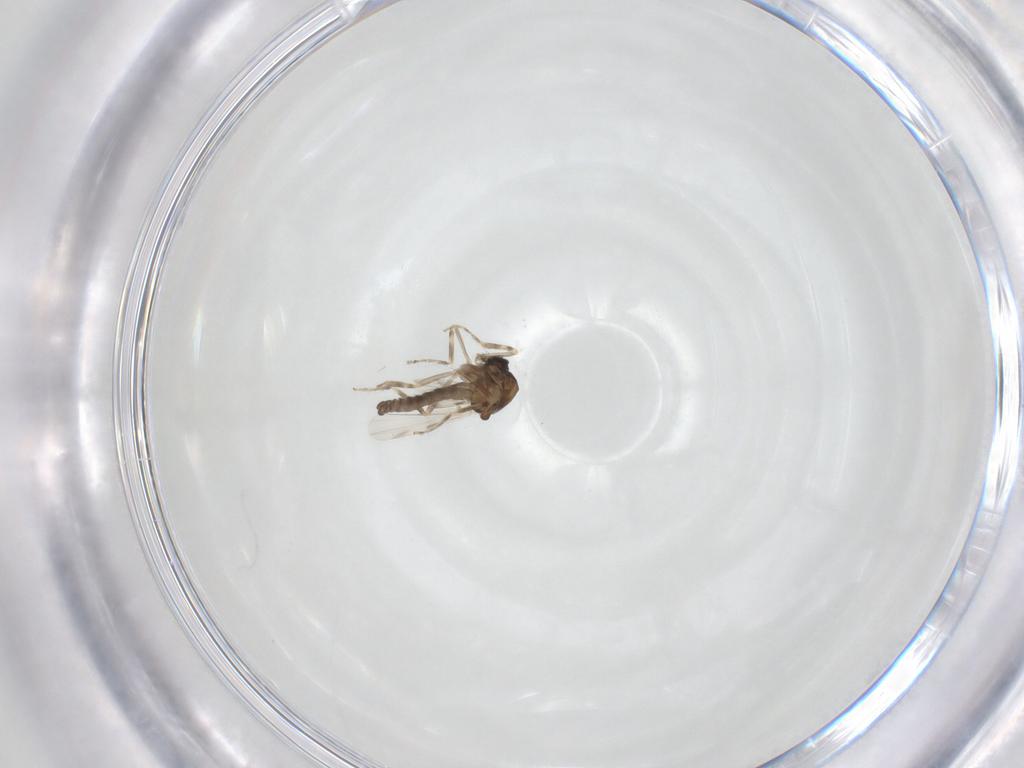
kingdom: Animalia
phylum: Arthropoda
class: Insecta
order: Diptera
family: Ceratopogonidae
